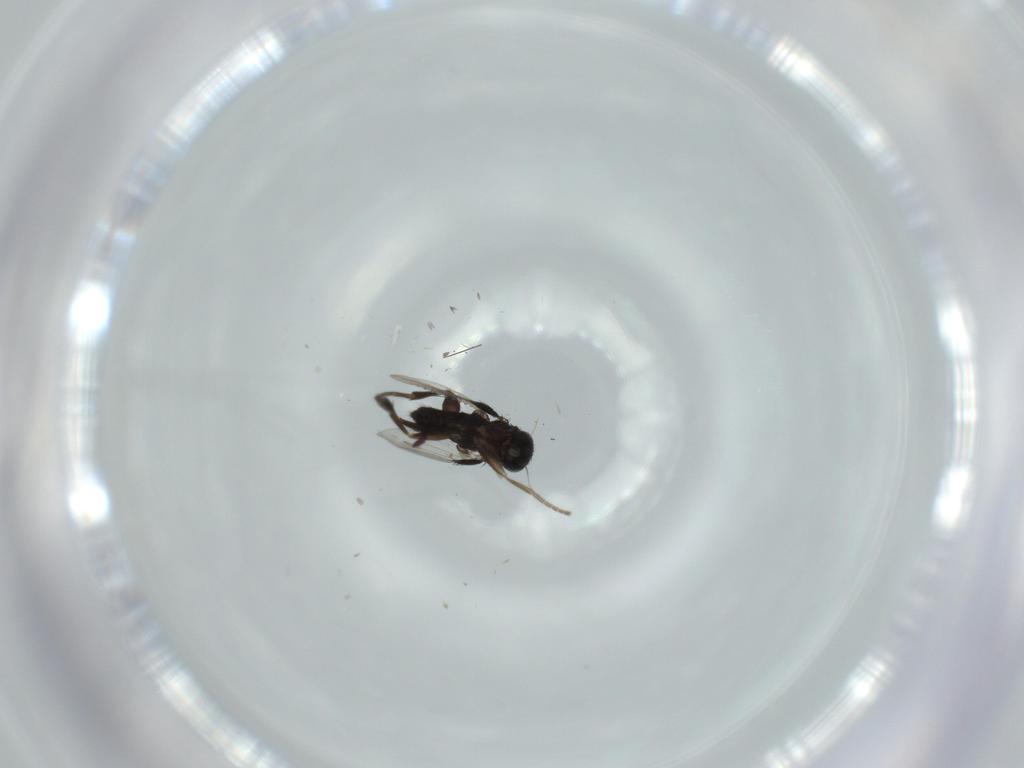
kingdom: Animalia
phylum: Arthropoda
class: Insecta
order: Diptera
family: Phoridae
